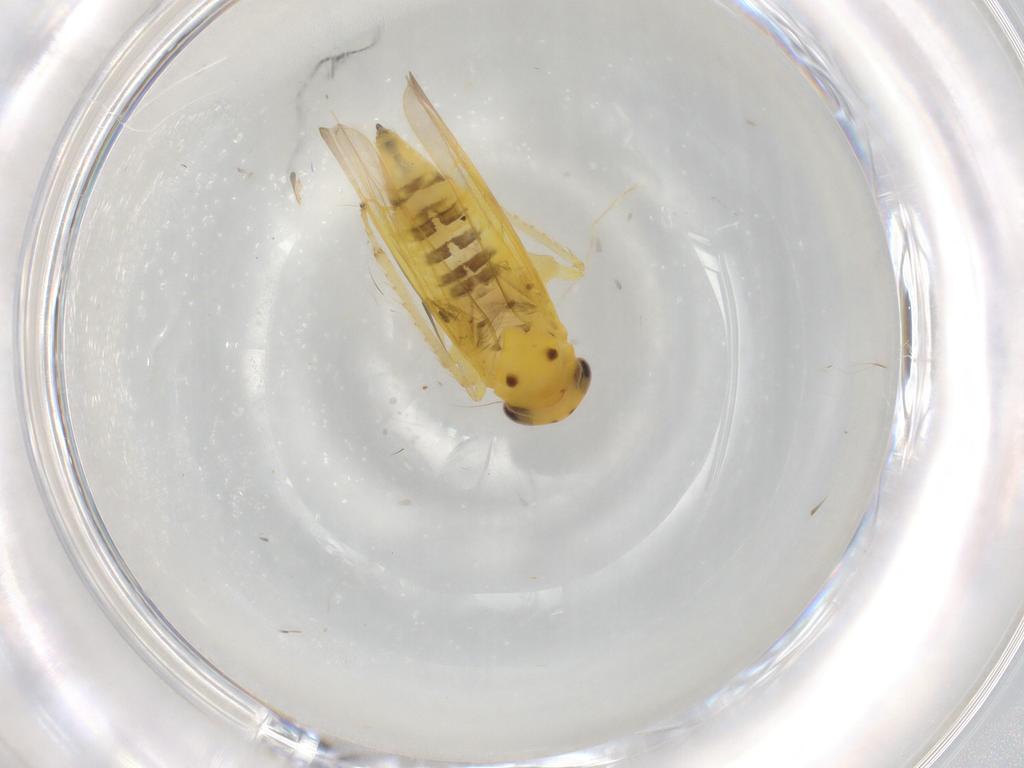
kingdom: Animalia
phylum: Arthropoda
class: Insecta
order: Hemiptera
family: Cicadellidae
